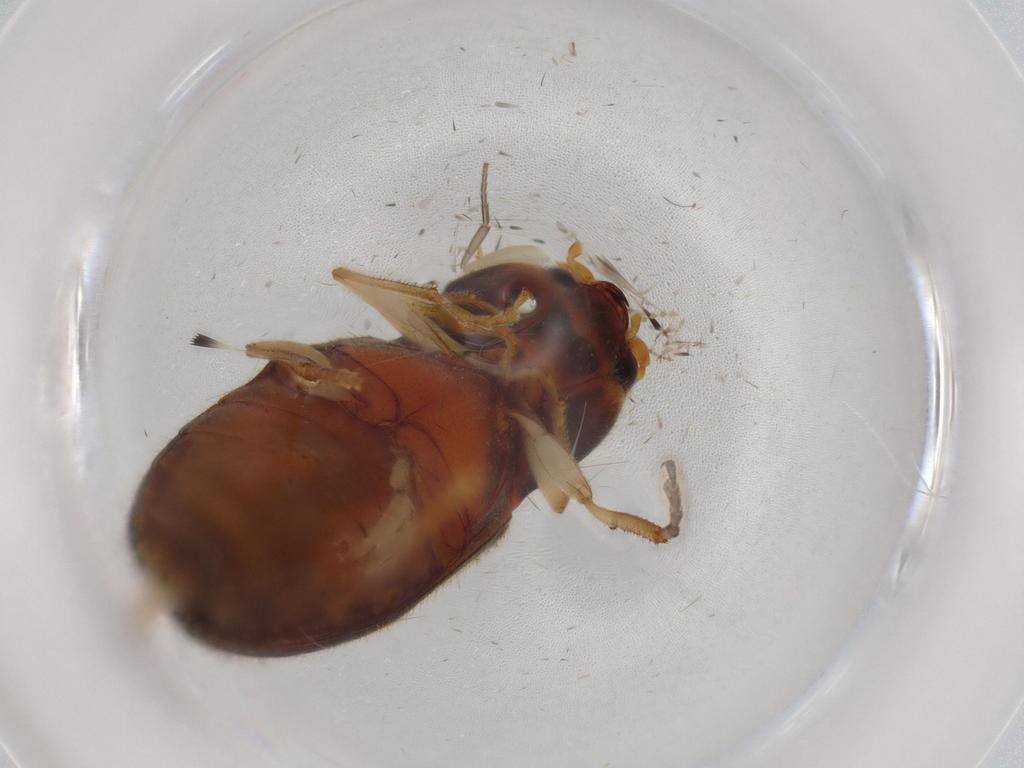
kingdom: Animalia
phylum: Arthropoda
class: Insecta
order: Coleoptera
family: Elateridae
